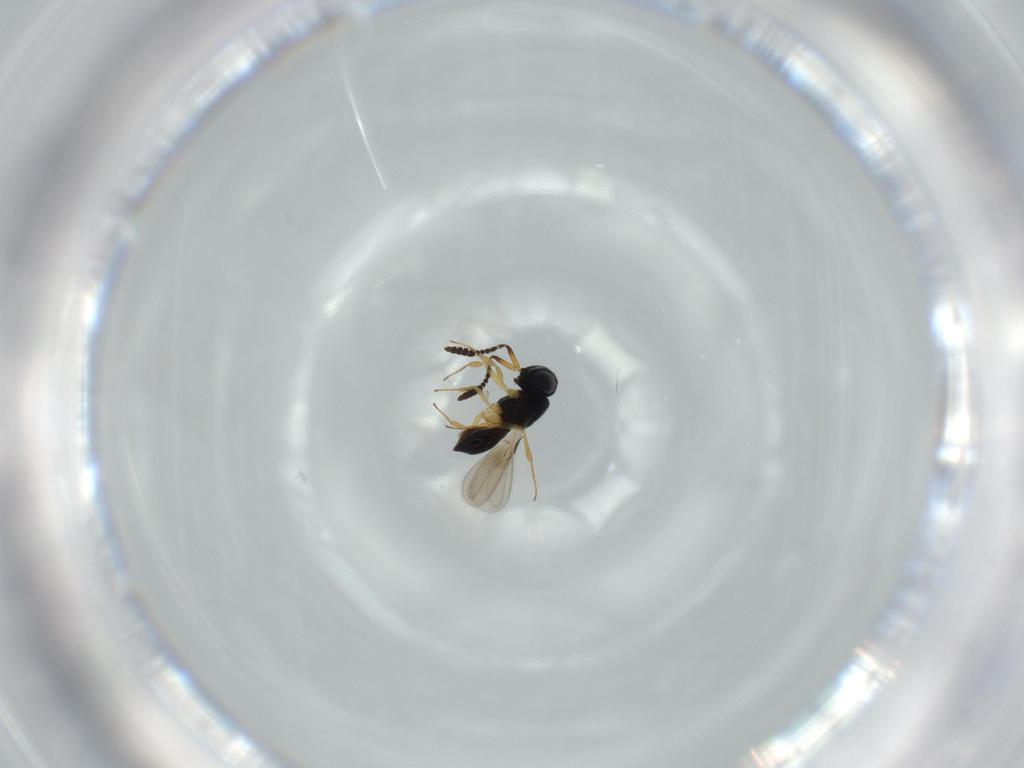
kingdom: Animalia
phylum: Arthropoda
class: Insecta
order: Hymenoptera
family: Scelionidae
